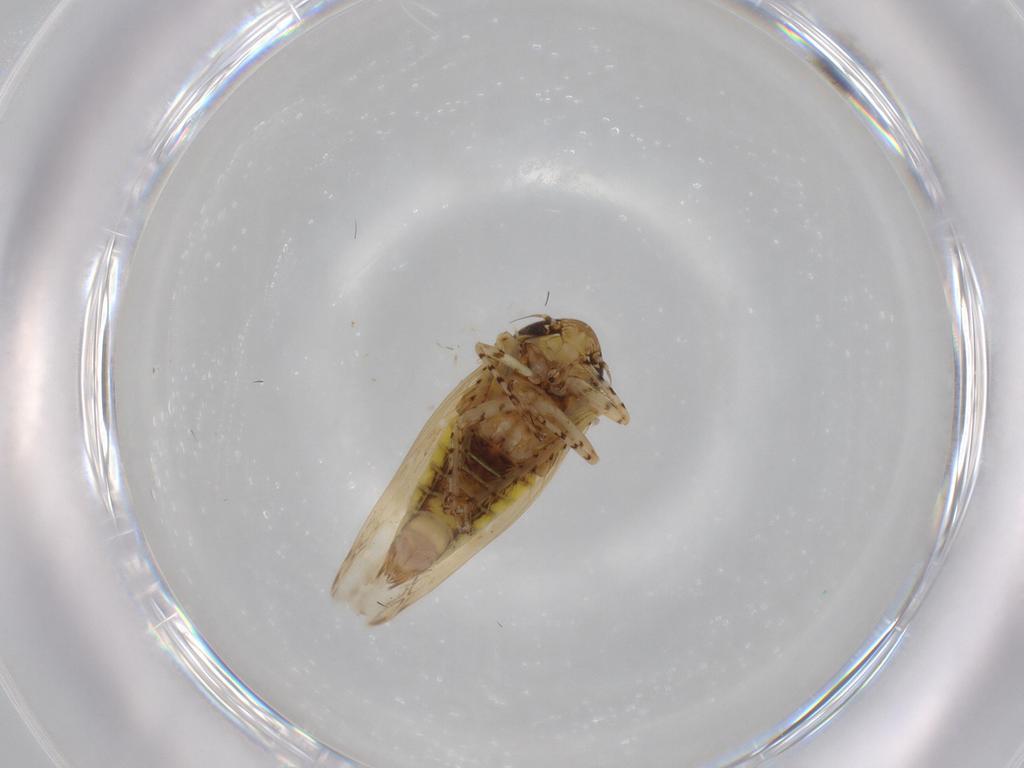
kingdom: Animalia
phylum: Arthropoda
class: Insecta
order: Hemiptera
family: Cicadellidae
